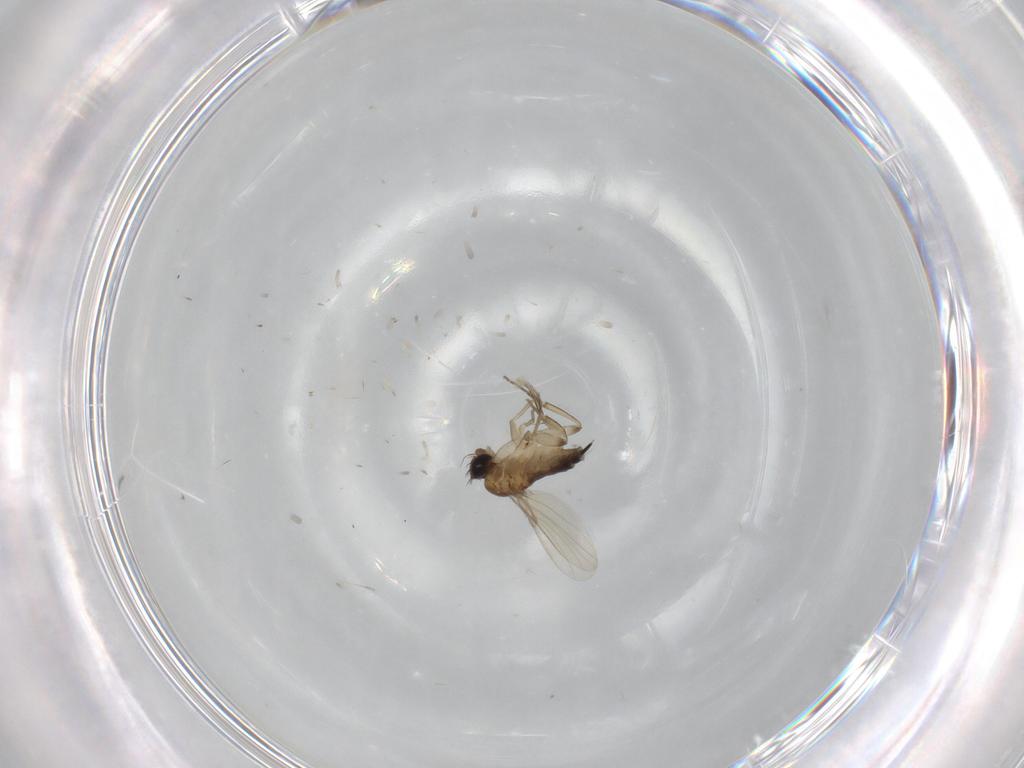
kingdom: Animalia
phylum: Arthropoda
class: Insecta
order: Diptera
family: Phoridae
